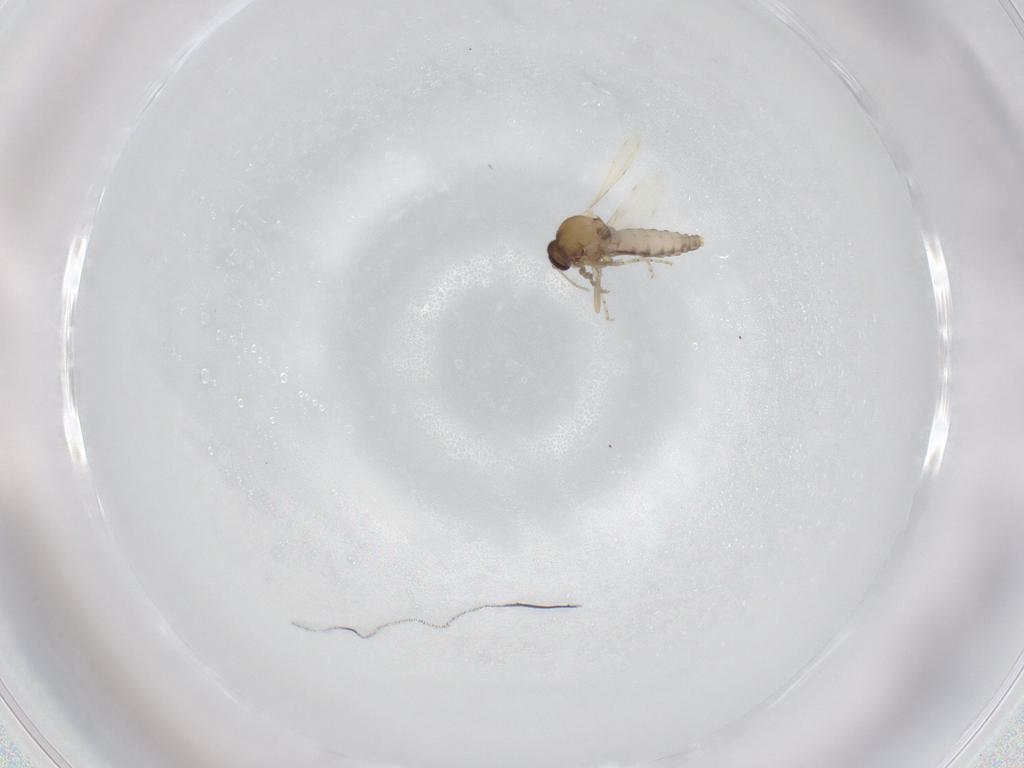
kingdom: Animalia
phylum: Arthropoda
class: Insecta
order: Diptera
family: Ceratopogonidae
